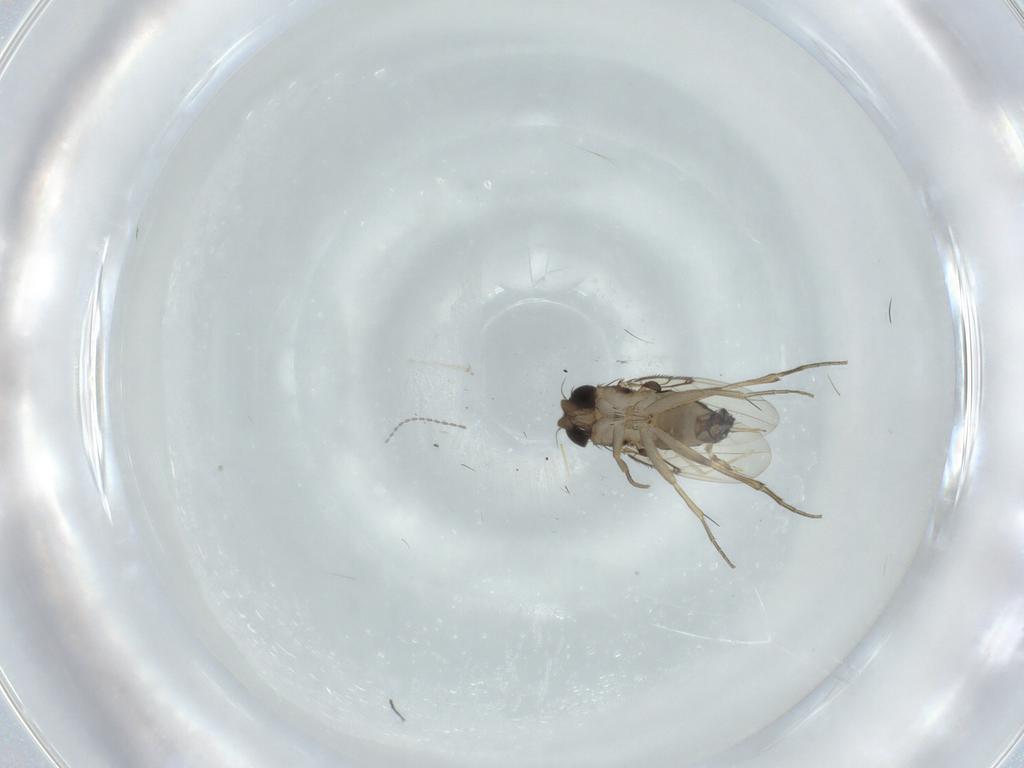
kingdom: Animalia
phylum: Arthropoda
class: Insecta
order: Diptera
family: Phoridae
